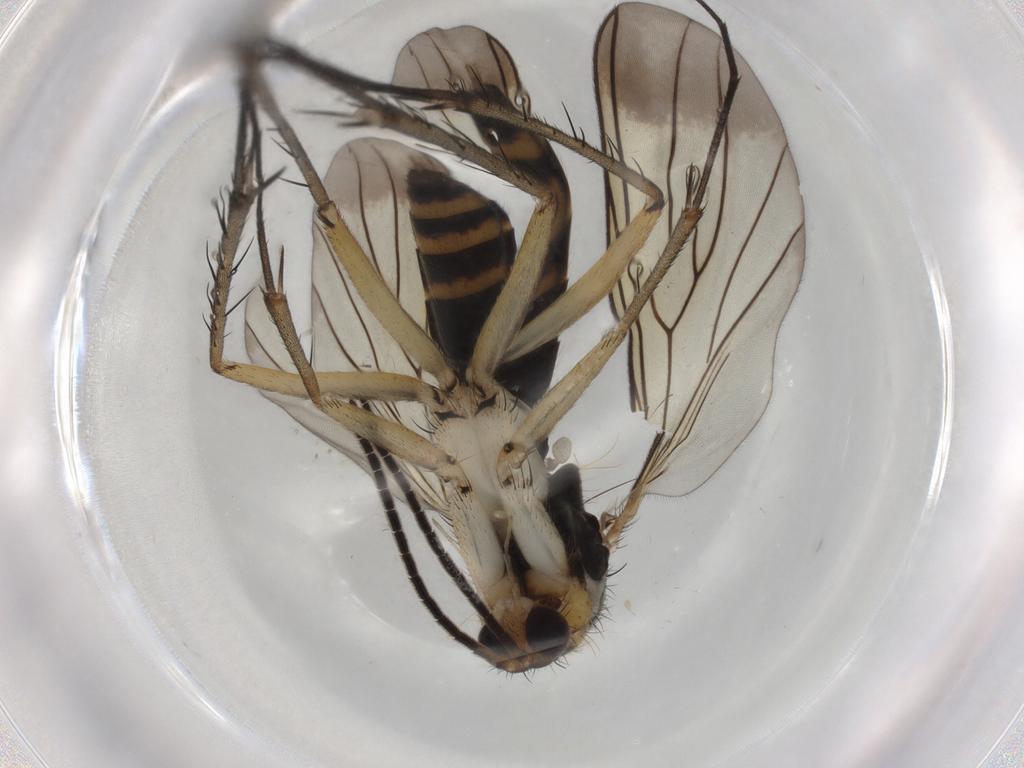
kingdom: Animalia
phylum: Arthropoda
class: Insecta
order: Diptera
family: Mycetophilidae
